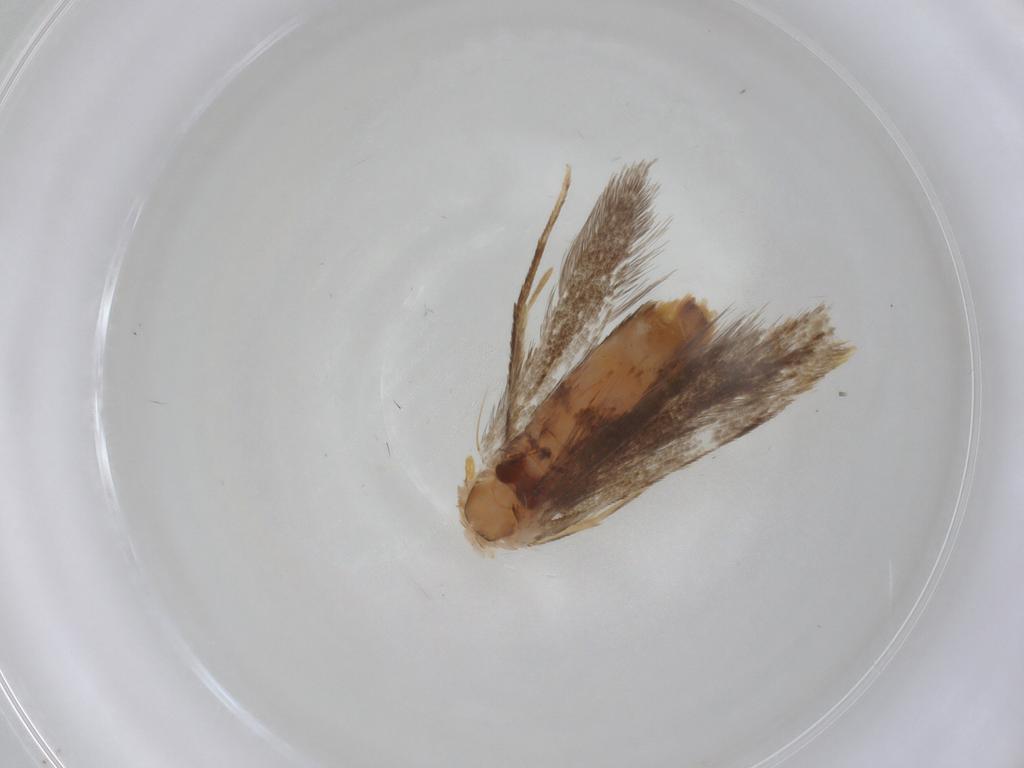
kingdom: Animalia
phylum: Arthropoda
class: Insecta
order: Lepidoptera
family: Dryadaulidae
